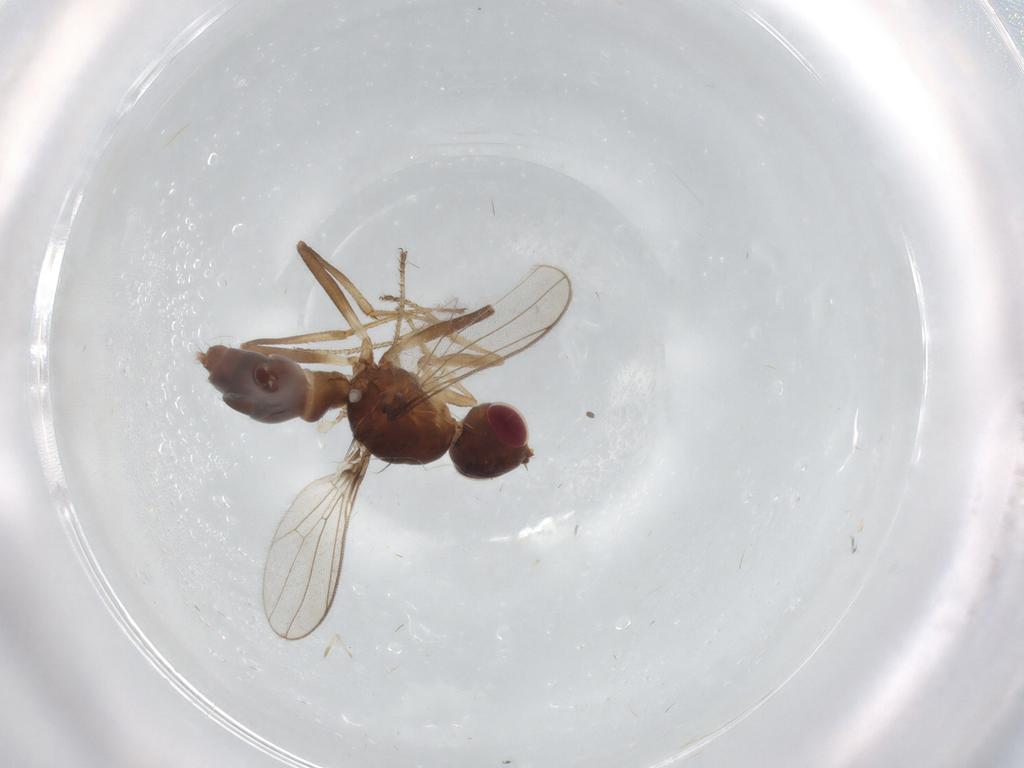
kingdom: Animalia
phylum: Arthropoda
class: Insecta
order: Diptera
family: Sepsidae
